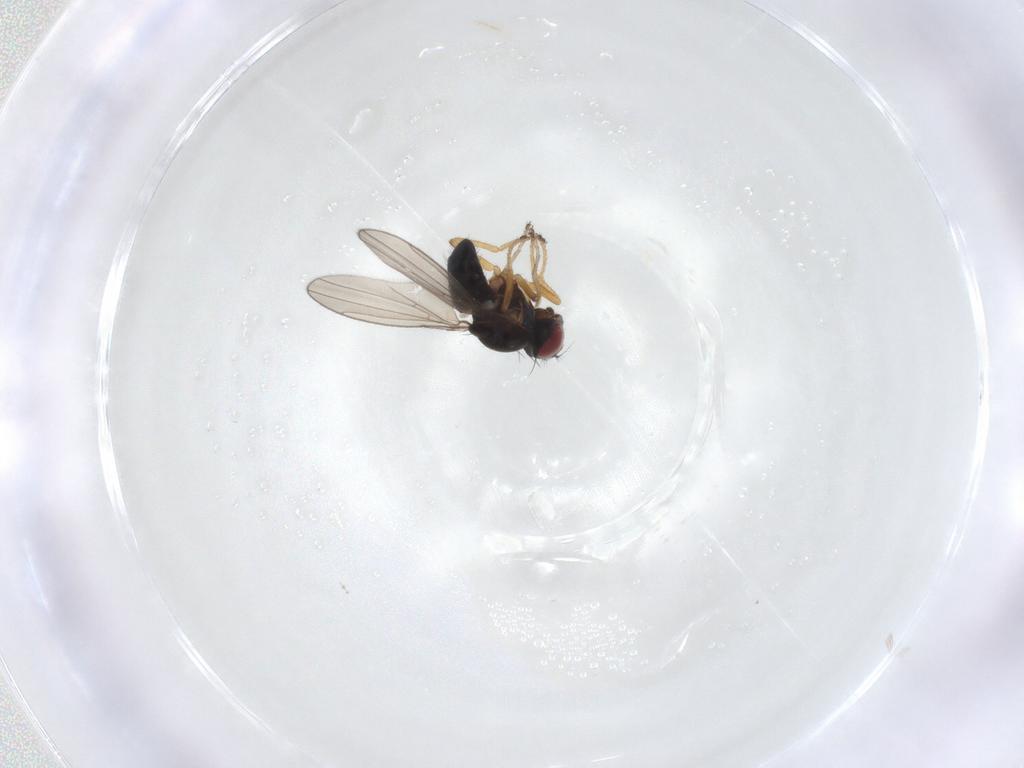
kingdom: Animalia
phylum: Arthropoda
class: Insecta
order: Diptera
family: Ephydridae
